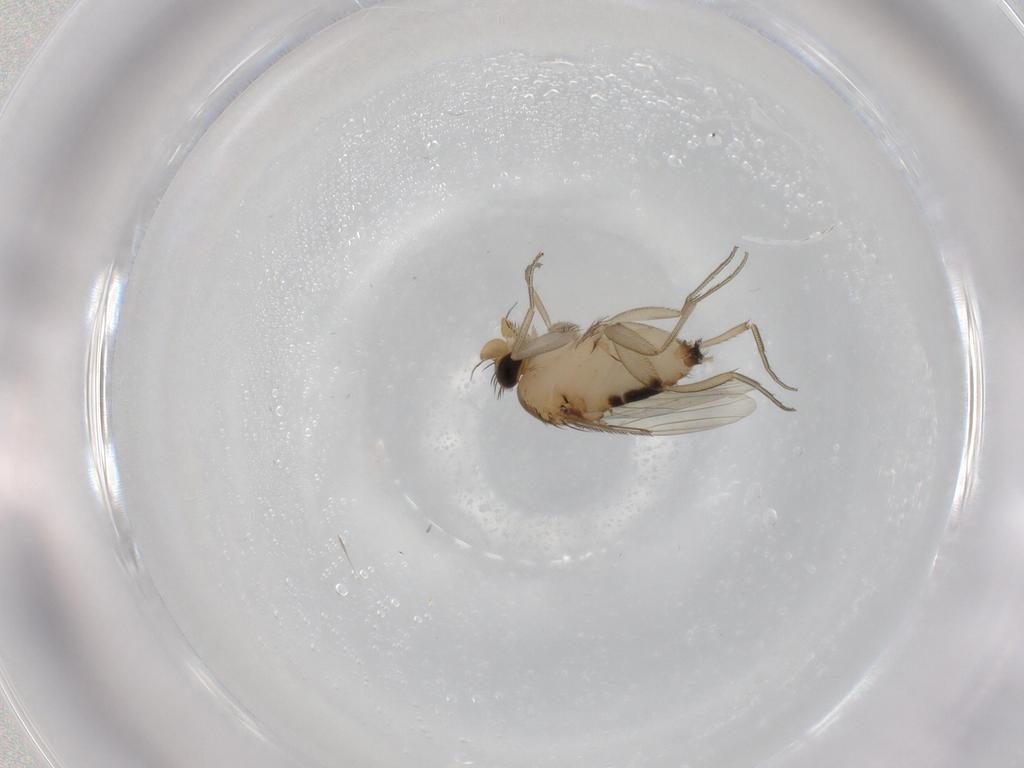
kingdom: Animalia
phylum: Arthropoda
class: Insecta
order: Diptera
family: Phoridae
